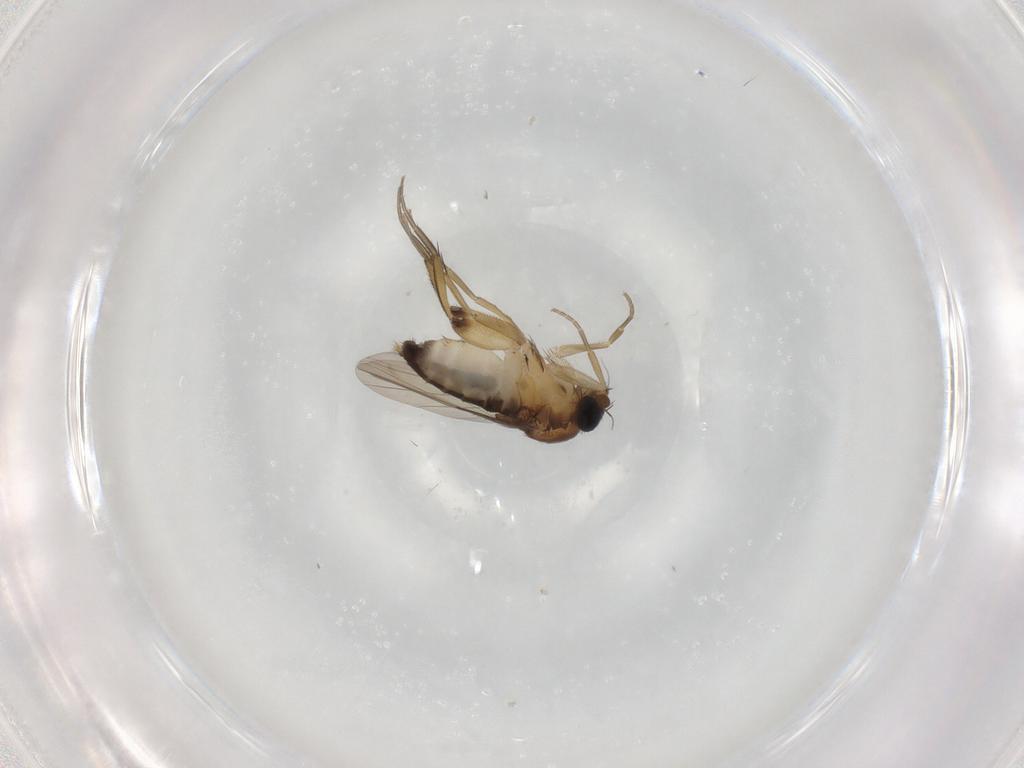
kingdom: Animalia
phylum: Arthropoda
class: Insecta
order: Diptera
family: Phoridae
